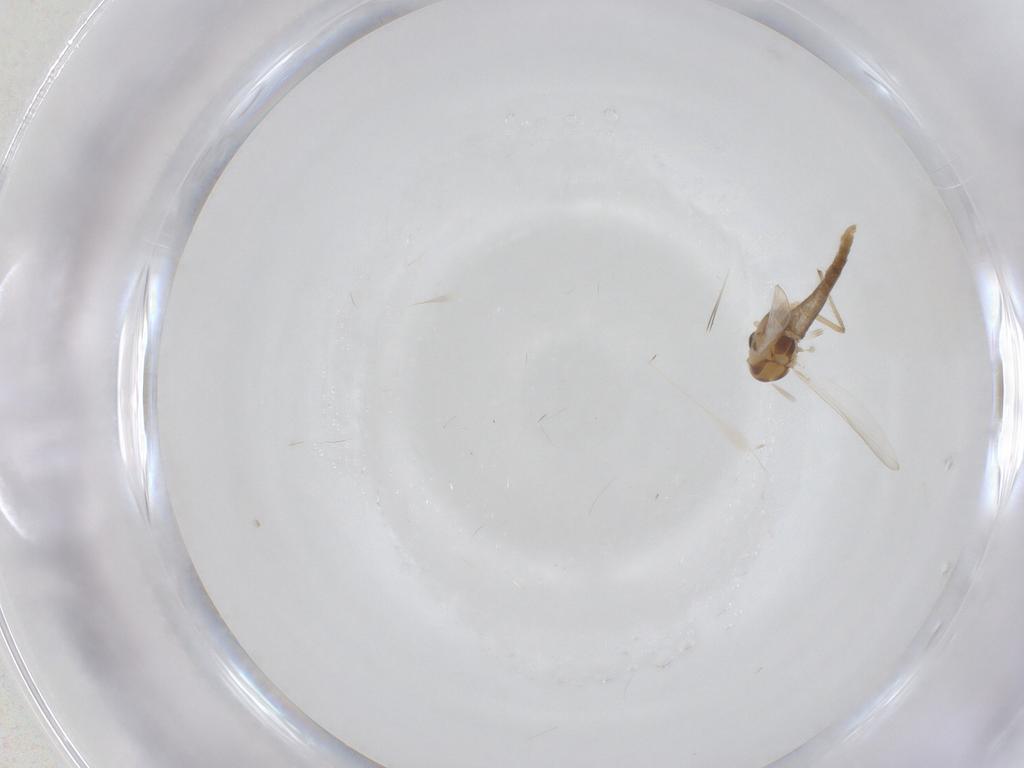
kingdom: Animalia
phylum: Arthropoda
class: Insecta
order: Diptera
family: Chironomidae
